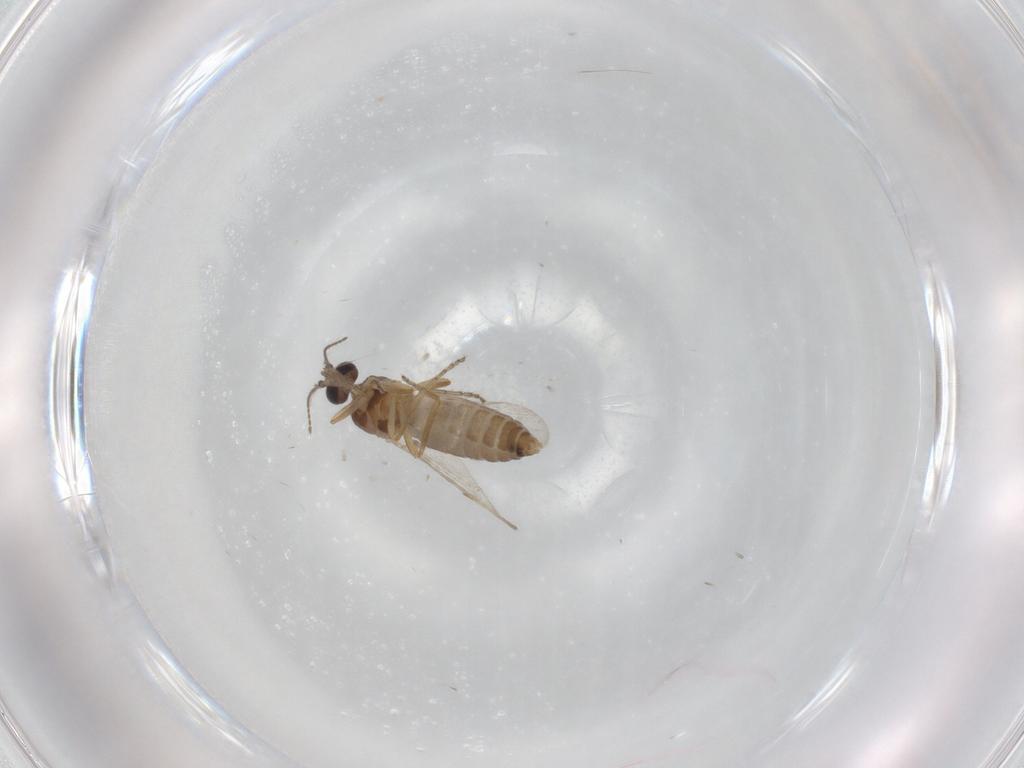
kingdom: Animalia
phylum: Arthropoda
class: Insecta
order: Diptera
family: Ceratopogonidae
